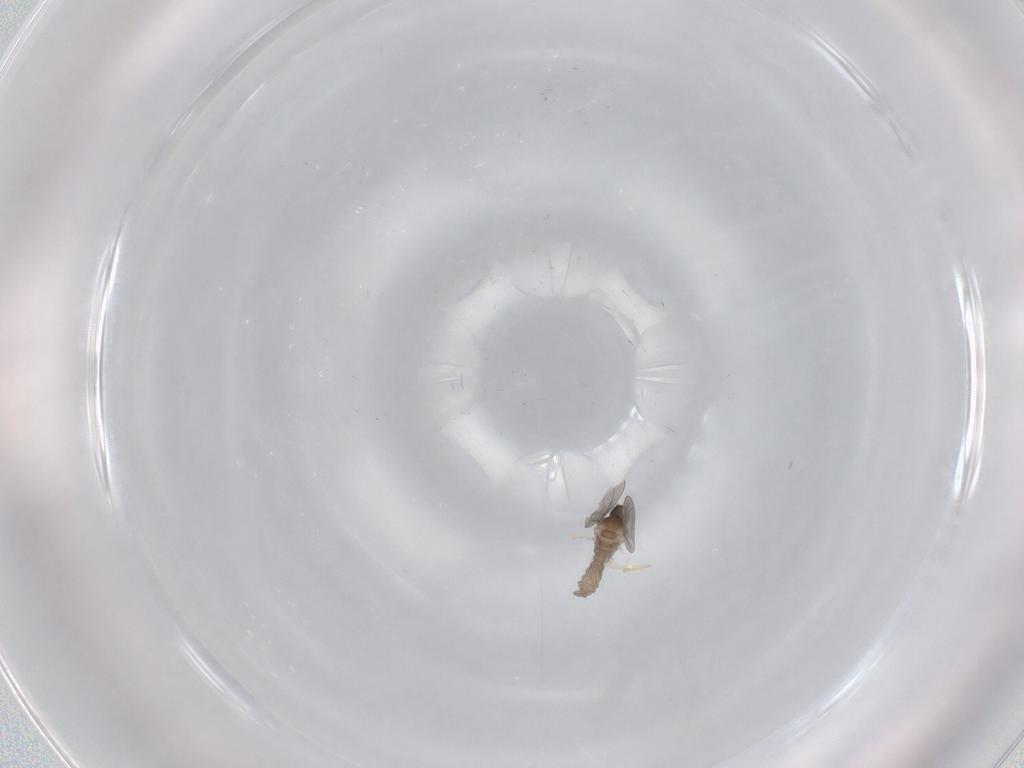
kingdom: Animalia
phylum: Arthropoda
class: Insecta
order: Diptera
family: Cecidomyiidae
